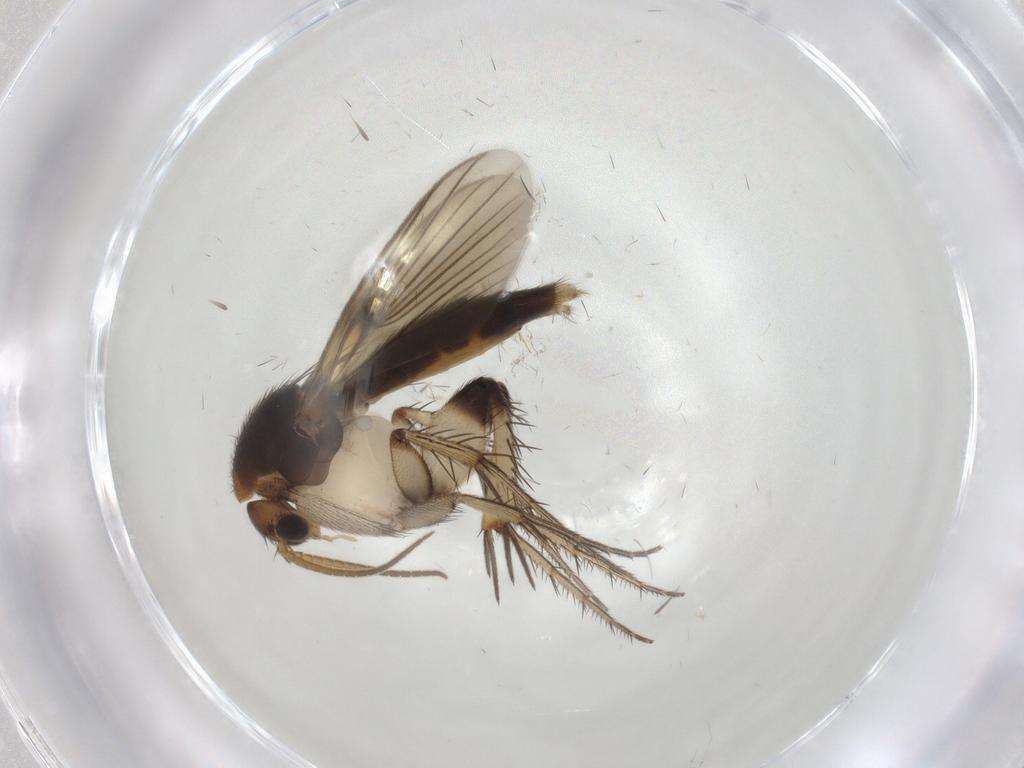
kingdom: Animalia
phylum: Arthropoda
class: Insecta
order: Diptera
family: Mycetophilidae
